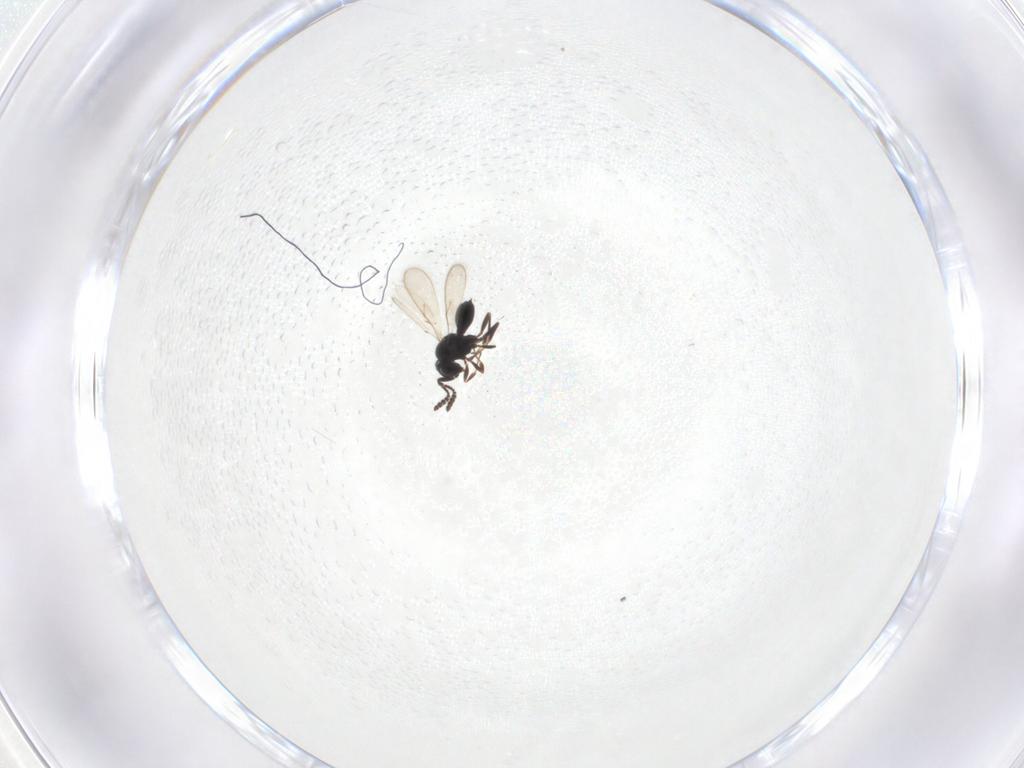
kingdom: Animalia
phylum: Arthropoda
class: Insecta
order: Hymenoptera
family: Scelionidae
